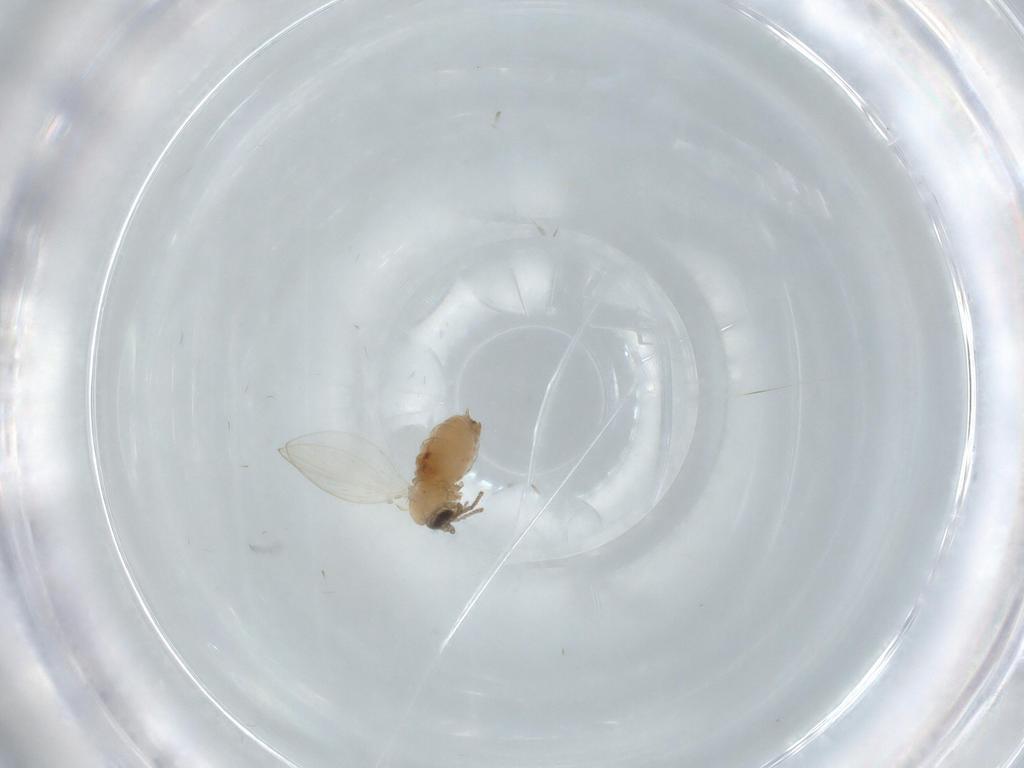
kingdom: Animalia
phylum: Arthropoda
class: Insecta
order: Diptera
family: Psychodidae
